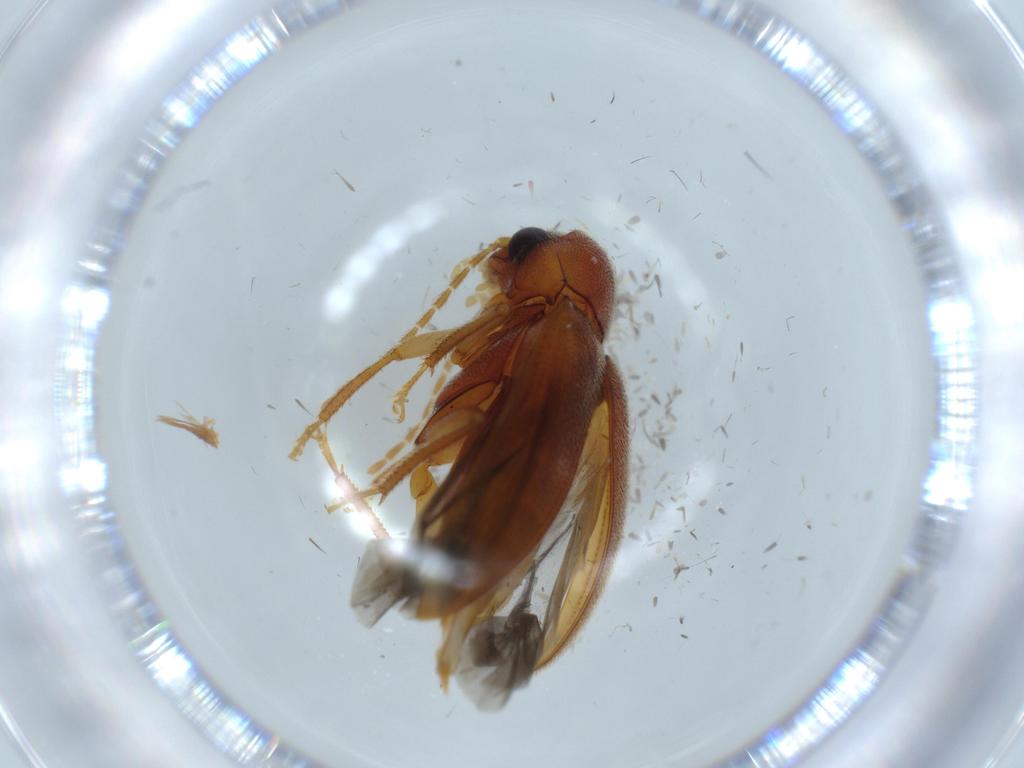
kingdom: Animalia
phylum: Arthropoda
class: Insecta
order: Coleoptera
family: Ptilodactylidae
